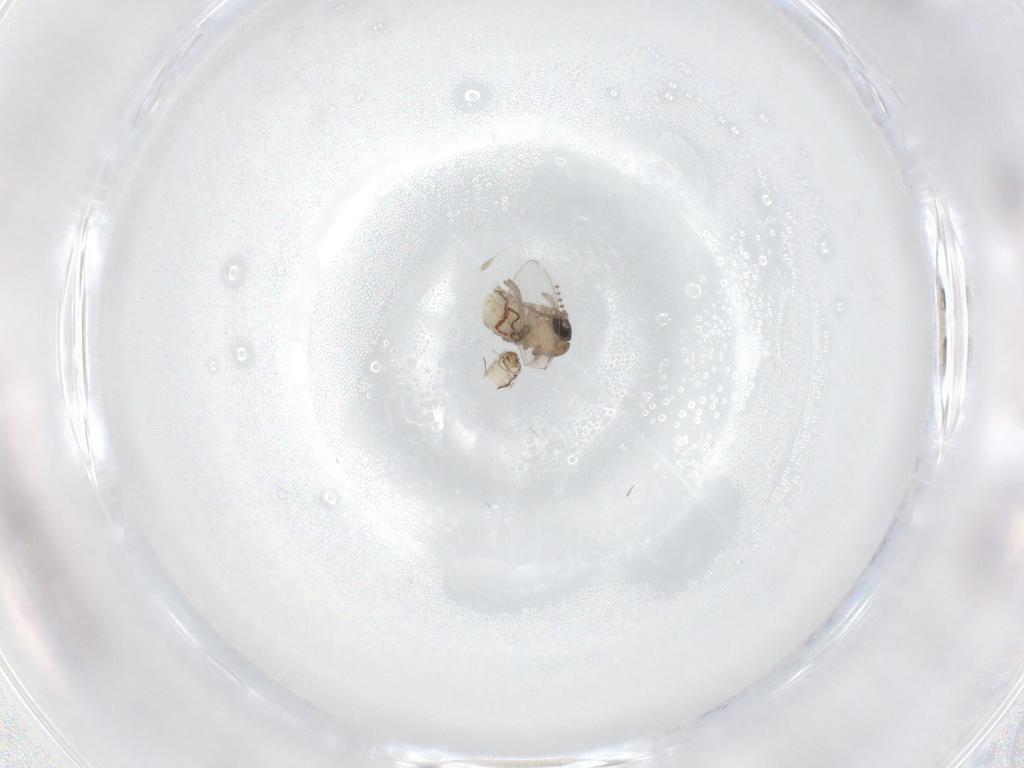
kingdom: Animalia
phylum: Arthropoda
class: Insecta
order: Diptera
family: Psychodidae
